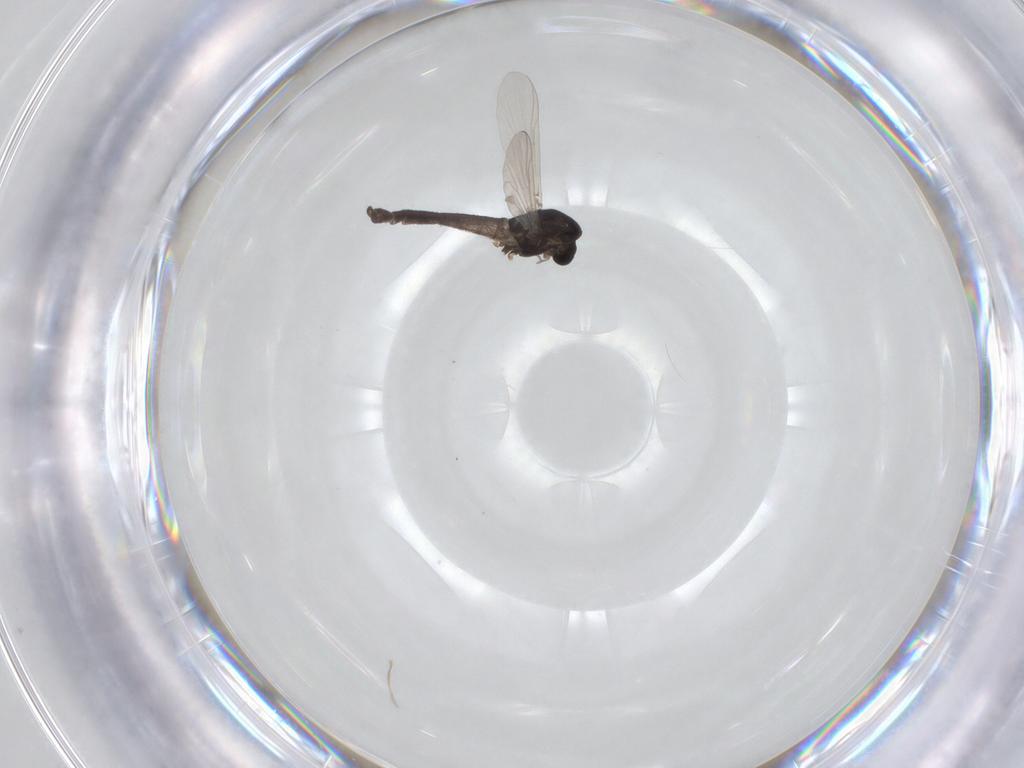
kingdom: Animalia
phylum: Arthropoda
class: Insecta
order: Diptera
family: Chironomidae
